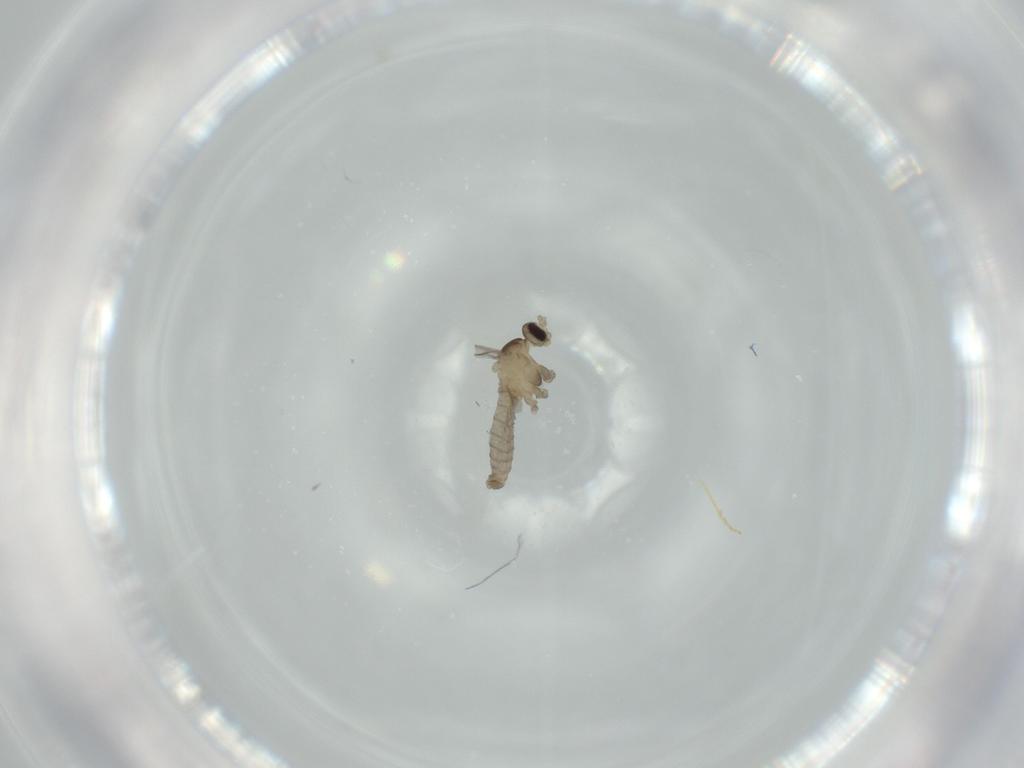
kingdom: Animalia
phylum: Arthropoda
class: Insecta
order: Diptera
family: Cecidomyiidae
